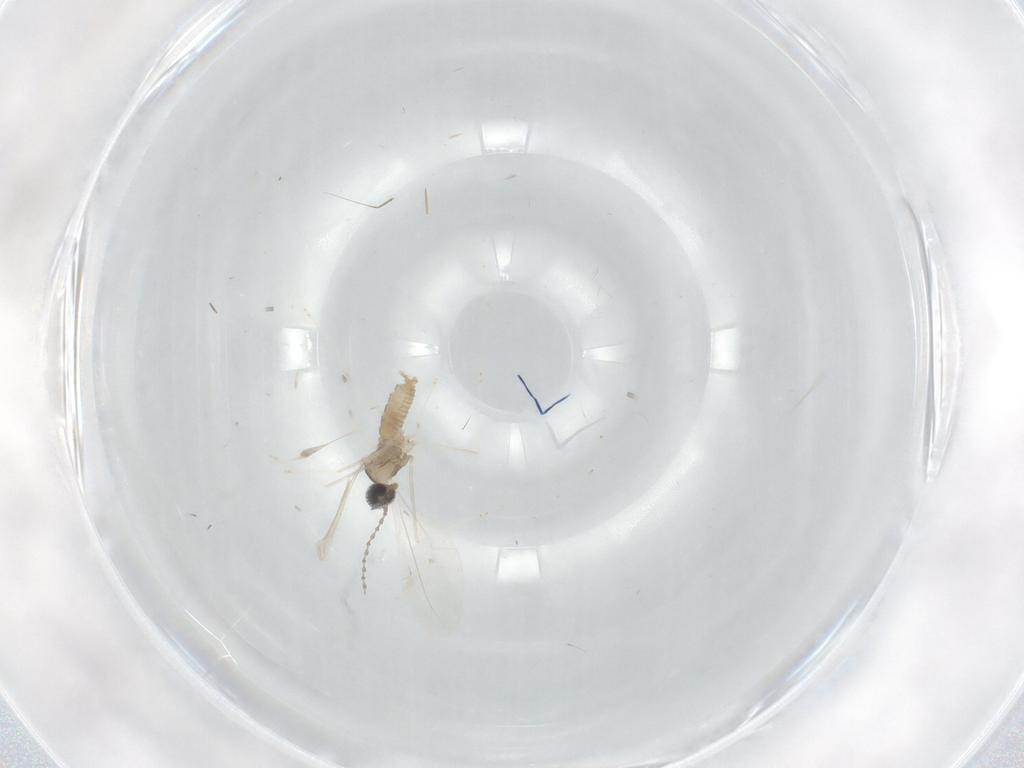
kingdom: Animalia
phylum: Arthropoda
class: Insecta
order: Diptera
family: Cecidomyiidae
